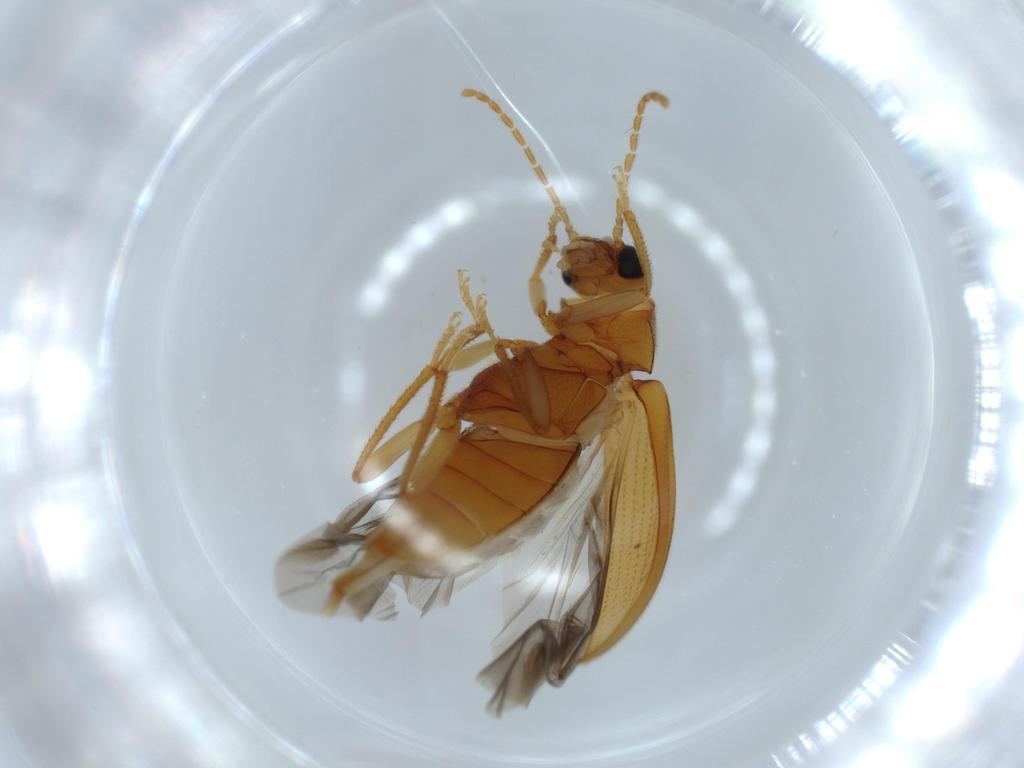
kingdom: Animalia
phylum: Arthropoda
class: Insecta
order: Coleoptera
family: Ptilodactylidae
